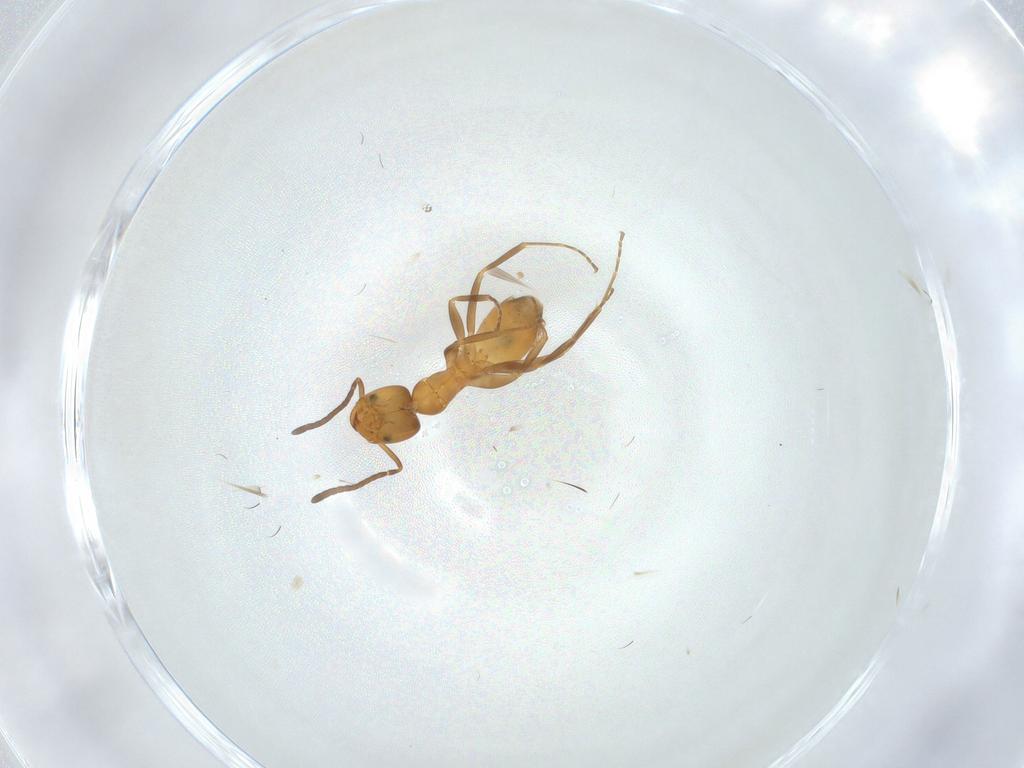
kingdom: Animalia
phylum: Arthropoda
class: Insecta
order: Hymenoptera
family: Formicidae
